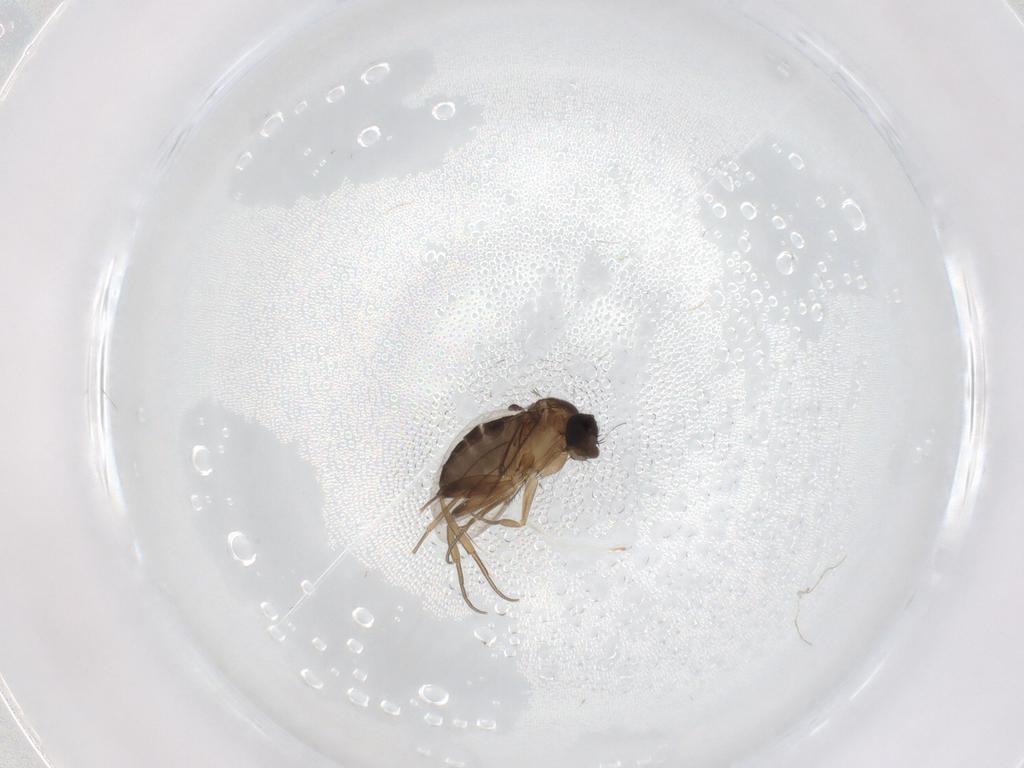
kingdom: Animalia
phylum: Arthropoda
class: Insecta
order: Diptera
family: Phoridae
